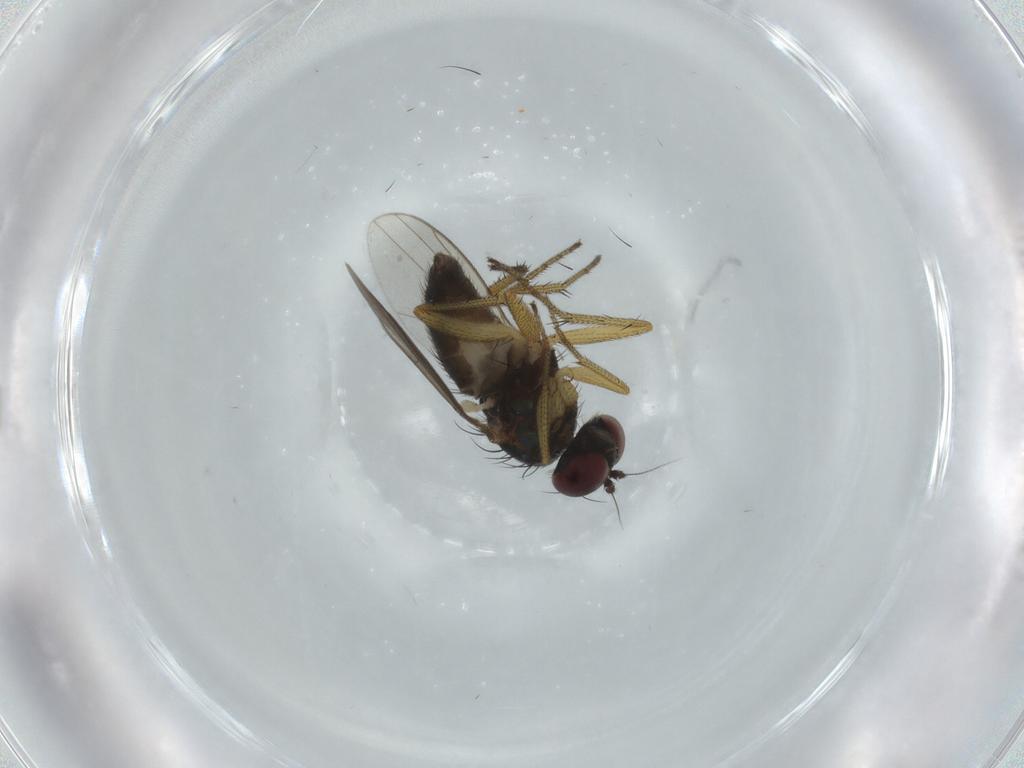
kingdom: Animalia
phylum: Arthropoda
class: Insecta
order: Diptera
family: Dolichopodidae
